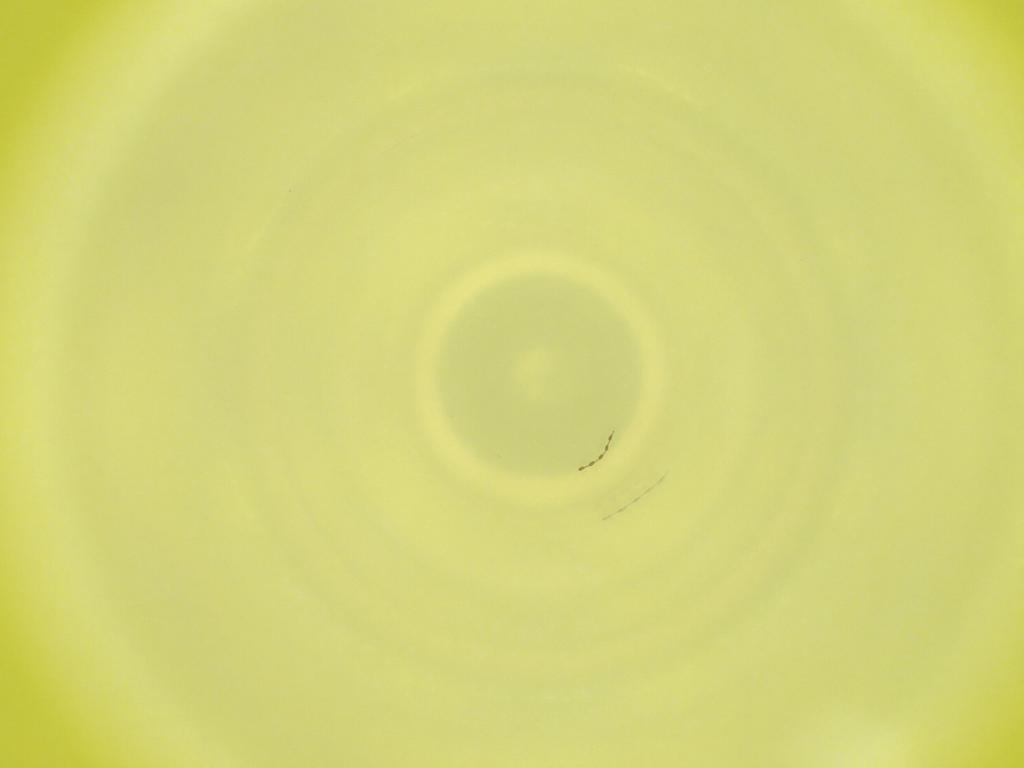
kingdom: Animalia
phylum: Arthropoda
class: Insecta
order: Diptera
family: Cecidomyiidae
